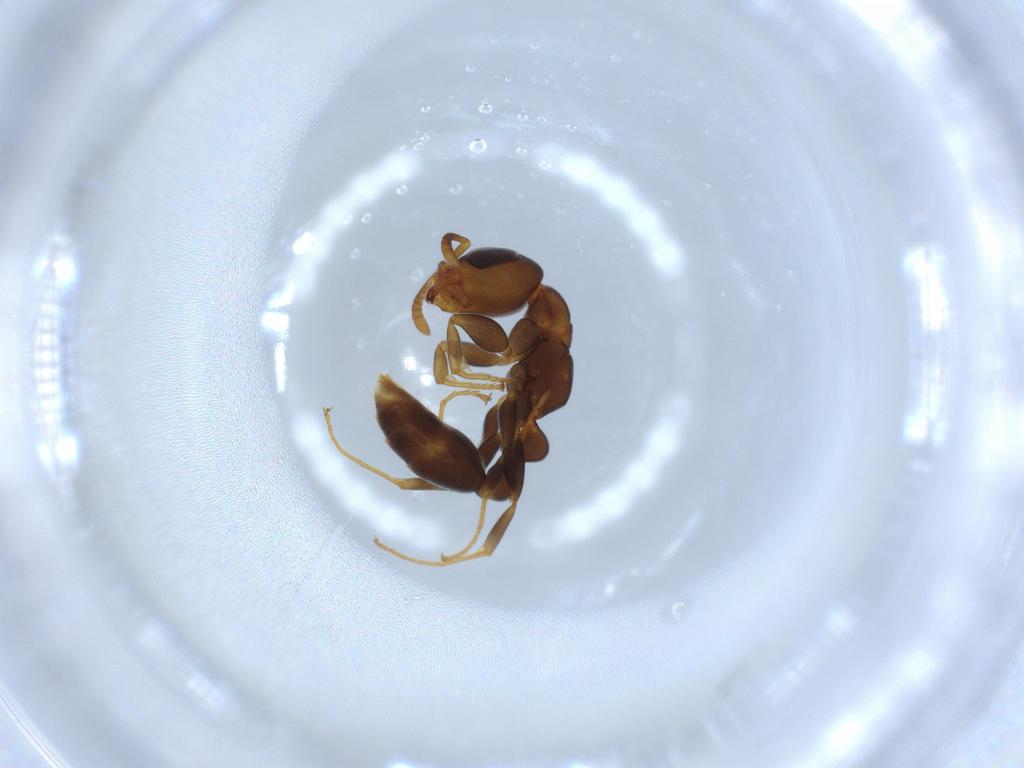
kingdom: Animalia
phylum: Arthropoda
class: Insecta
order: Hymenoptera
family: Formicidae
